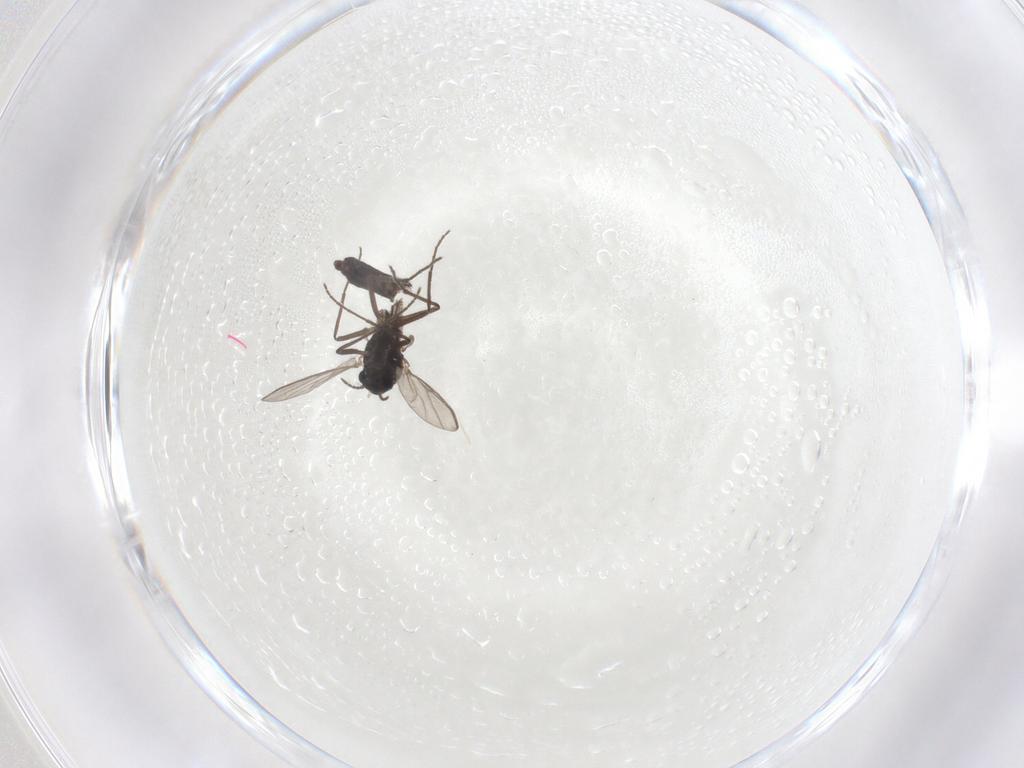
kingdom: Animalia
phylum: Arthropoda
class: Insecta
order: Diptera
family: Chironomidae
